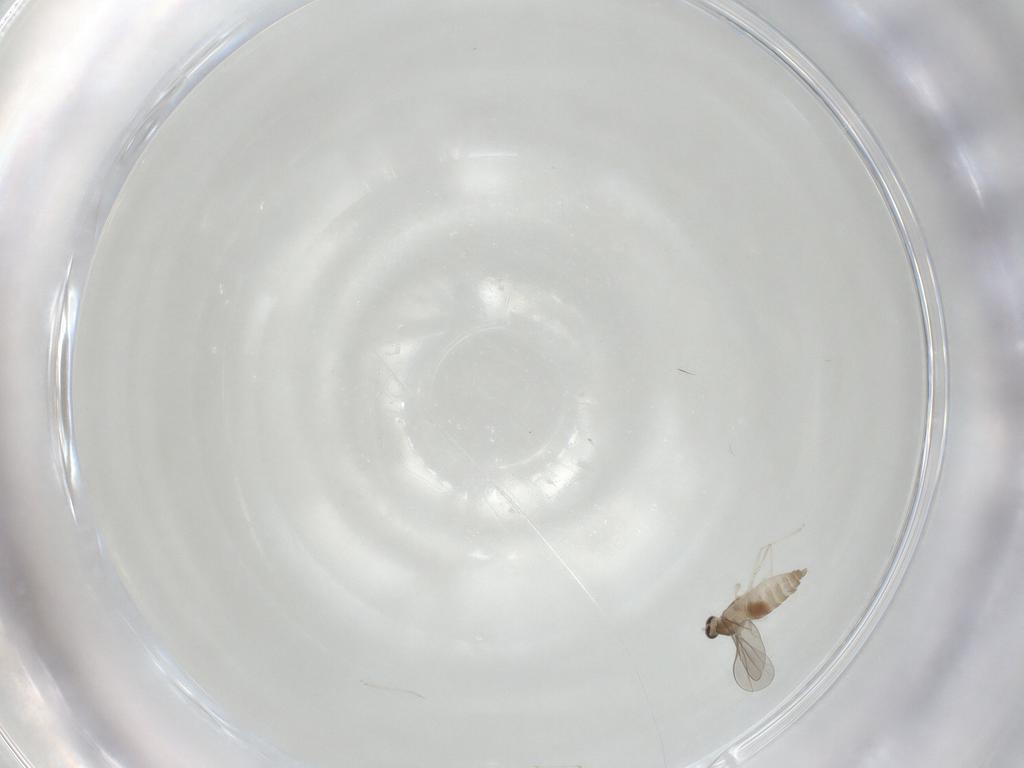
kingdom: Animalia
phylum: Arthropoda
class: Insecta
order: Diptera
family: Cecidomyiidae
